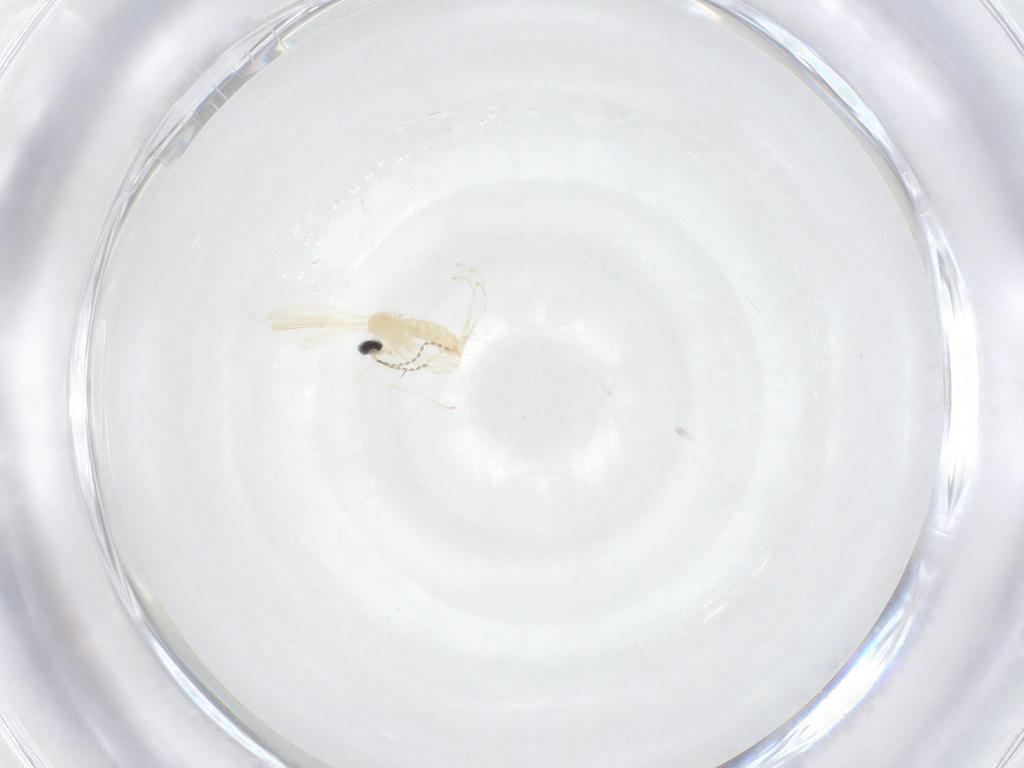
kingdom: Animalia
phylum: Arthropoda
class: Insecta
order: Diptera
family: Cecidomyiidae
